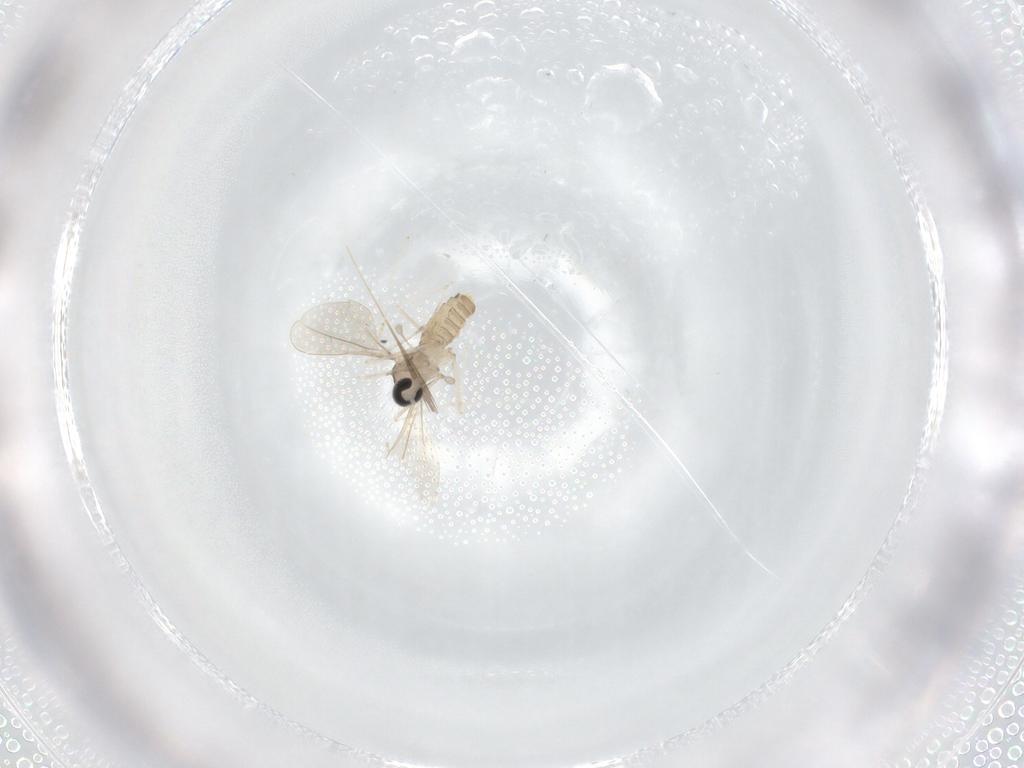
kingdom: Animalia
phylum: Arthropoda
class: Insecta
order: Diptera
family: Cecidomyiidae
